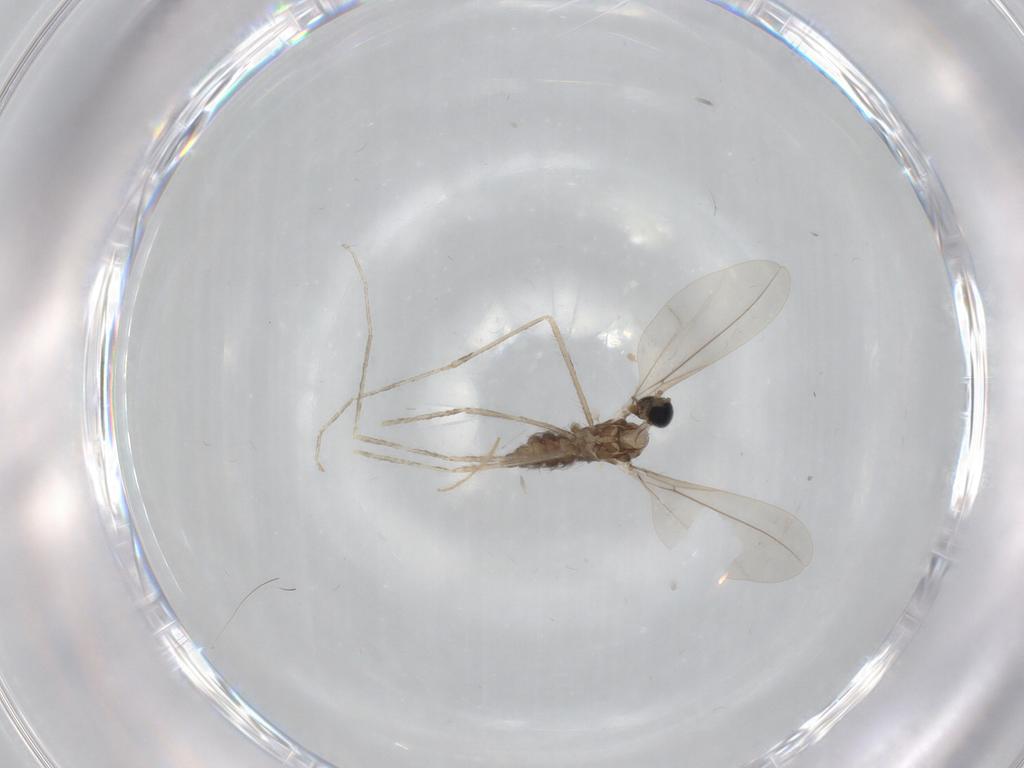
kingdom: Animalia
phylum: Arthropoda
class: Insecta
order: Diptera
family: Cecidomyiidae
